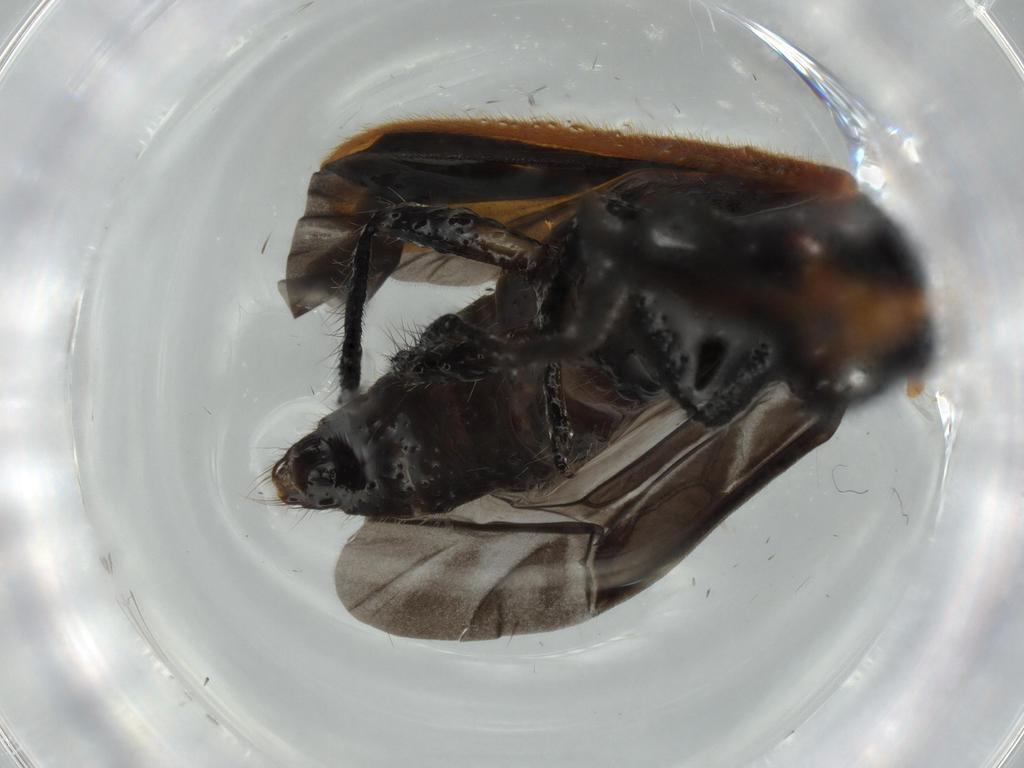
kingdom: Animalia
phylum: Arthropoda
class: Insecta
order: Coleoptera
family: Cleridae
